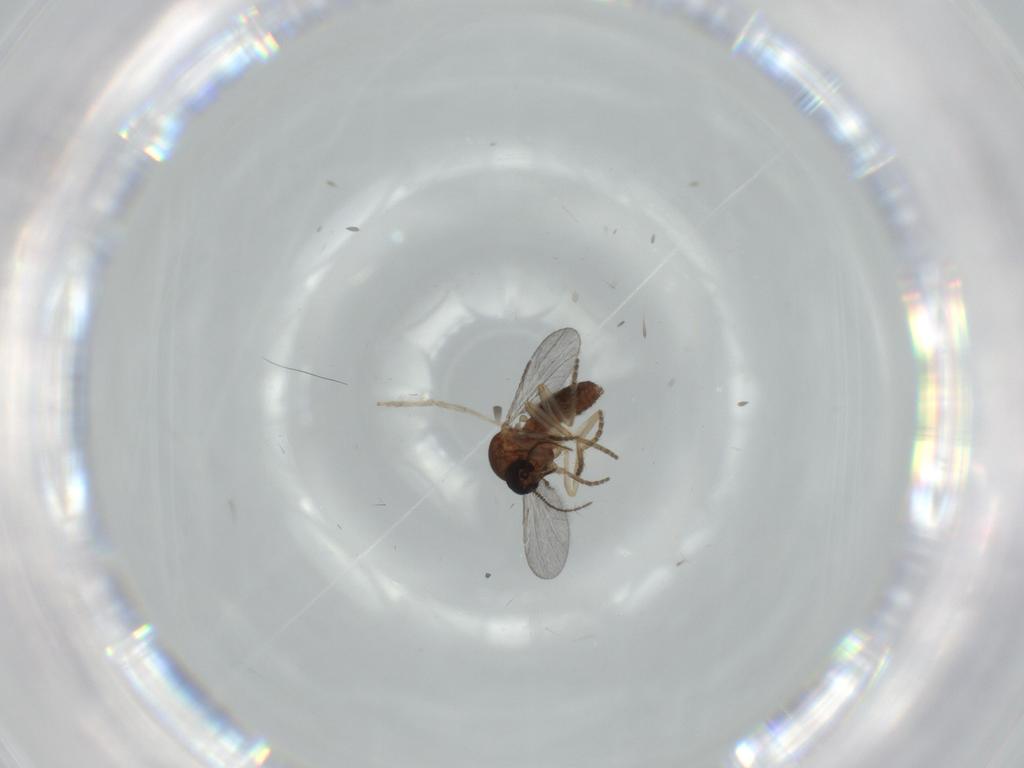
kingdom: Animalia
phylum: Arthropoda
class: Insecta
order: Diptera
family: Ceratopogonidae
